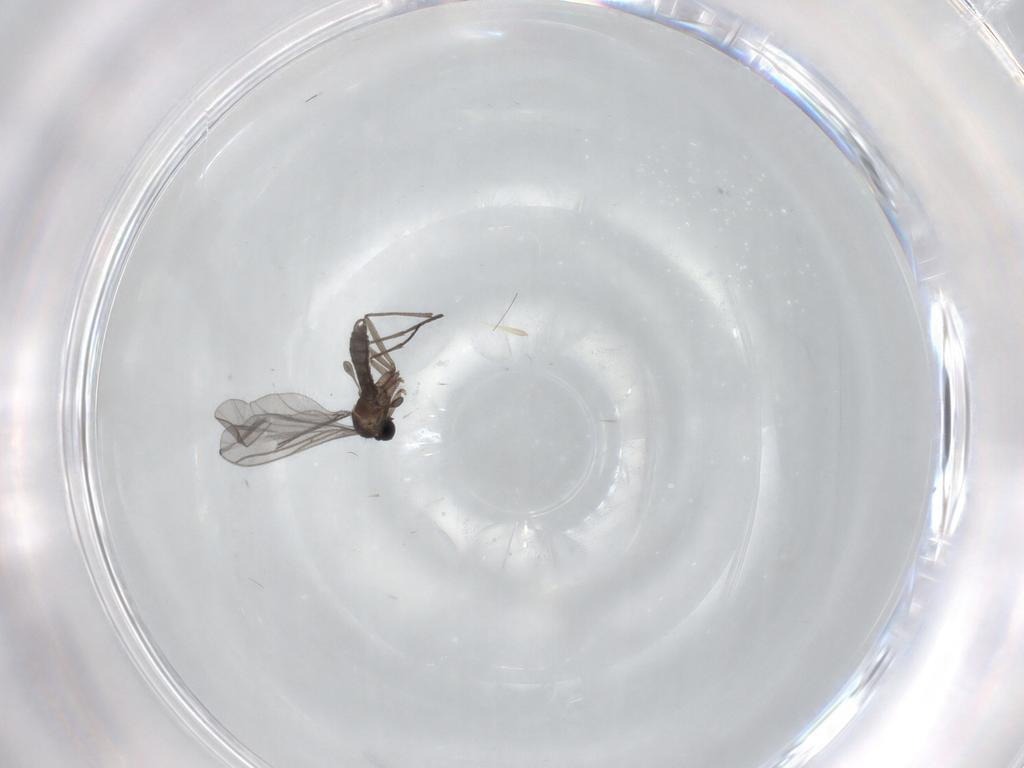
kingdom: Animalia
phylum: Arthropoda
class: Insecta
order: Diptera
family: Sciaridae
